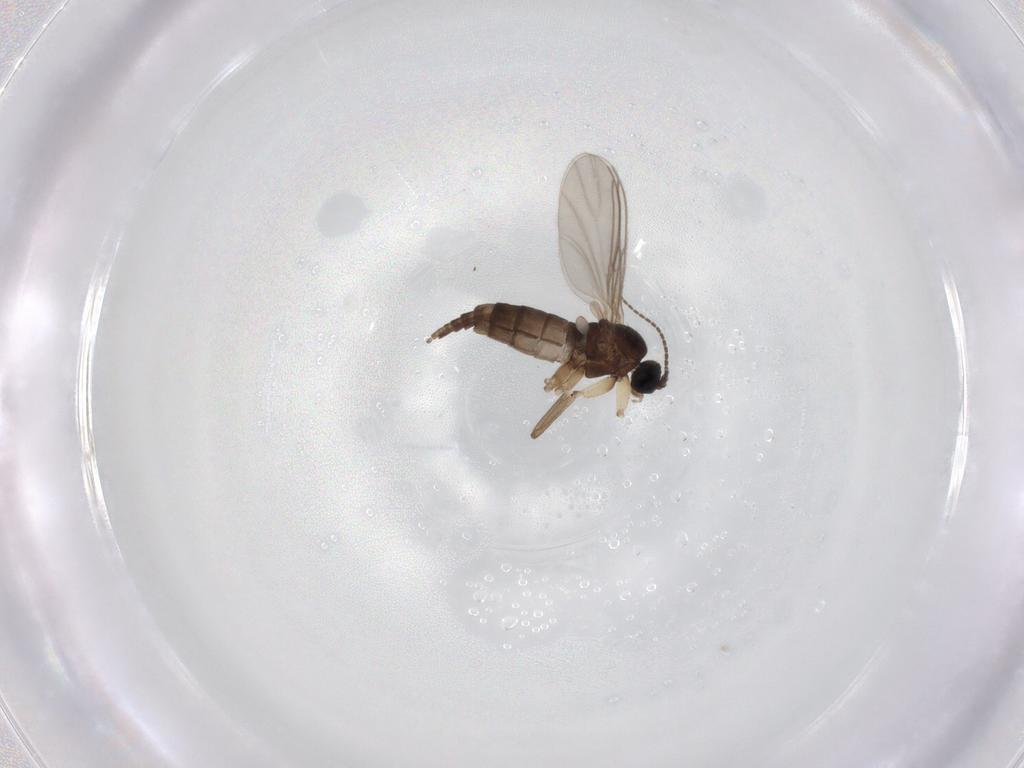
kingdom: Animalia
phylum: Arthropoda
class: Insecta
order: Diptera
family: Sciaridae
